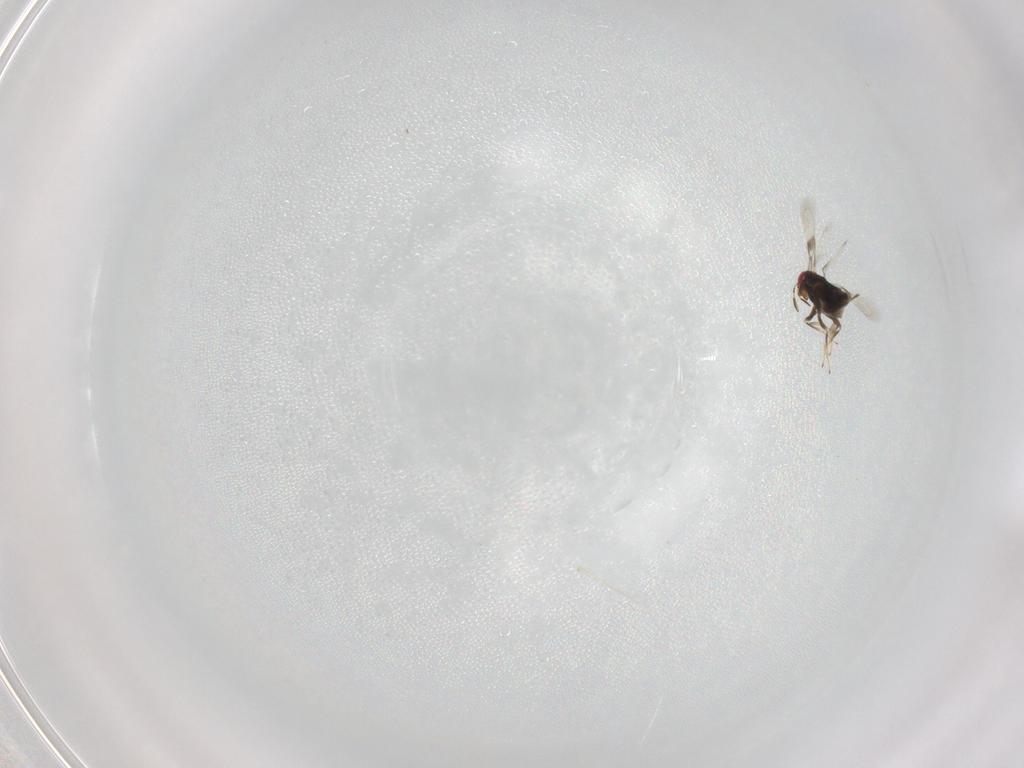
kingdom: Animalia
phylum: Arthropoda
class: Insecta
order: Hymenoptera
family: Azotidae
